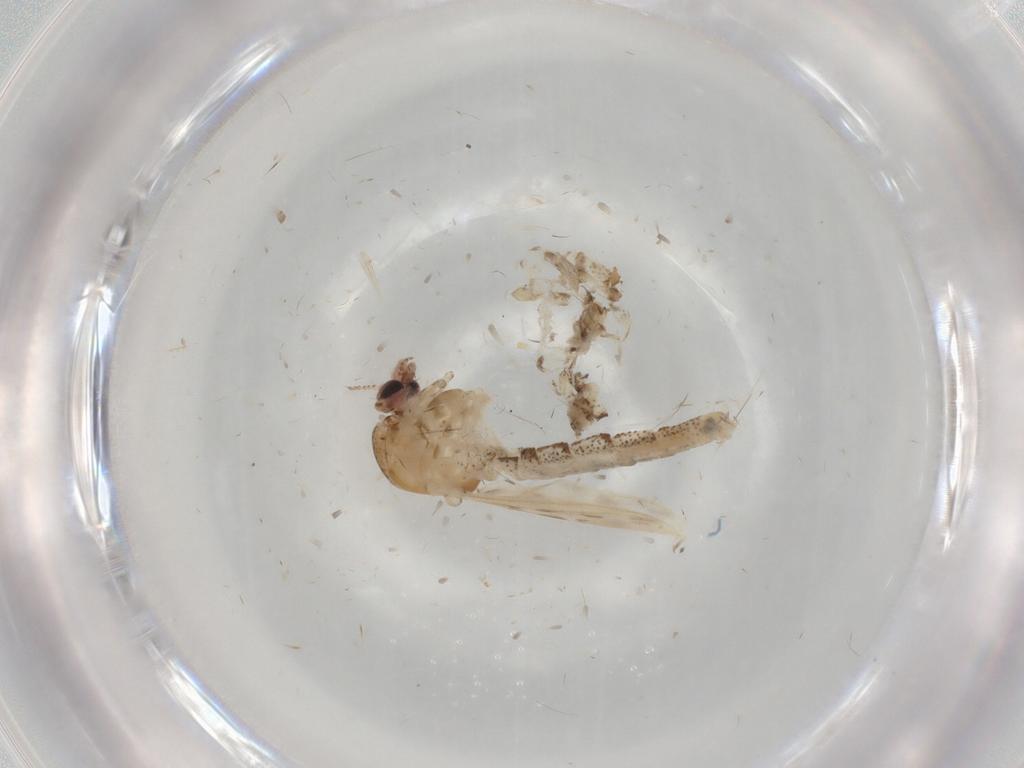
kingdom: Animalia
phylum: Arthropoda
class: Insecta
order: Diptera
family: Chaoboridae
